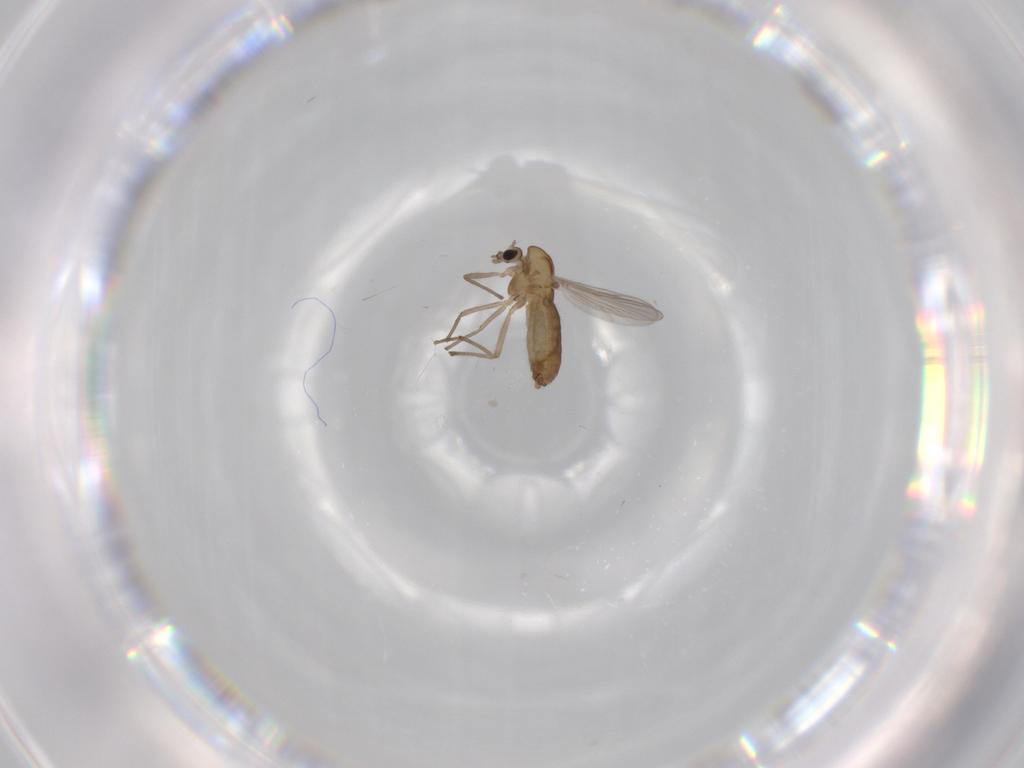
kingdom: Animalia
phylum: Arthropoda
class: Insecta
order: Diptera
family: Chironomidae
